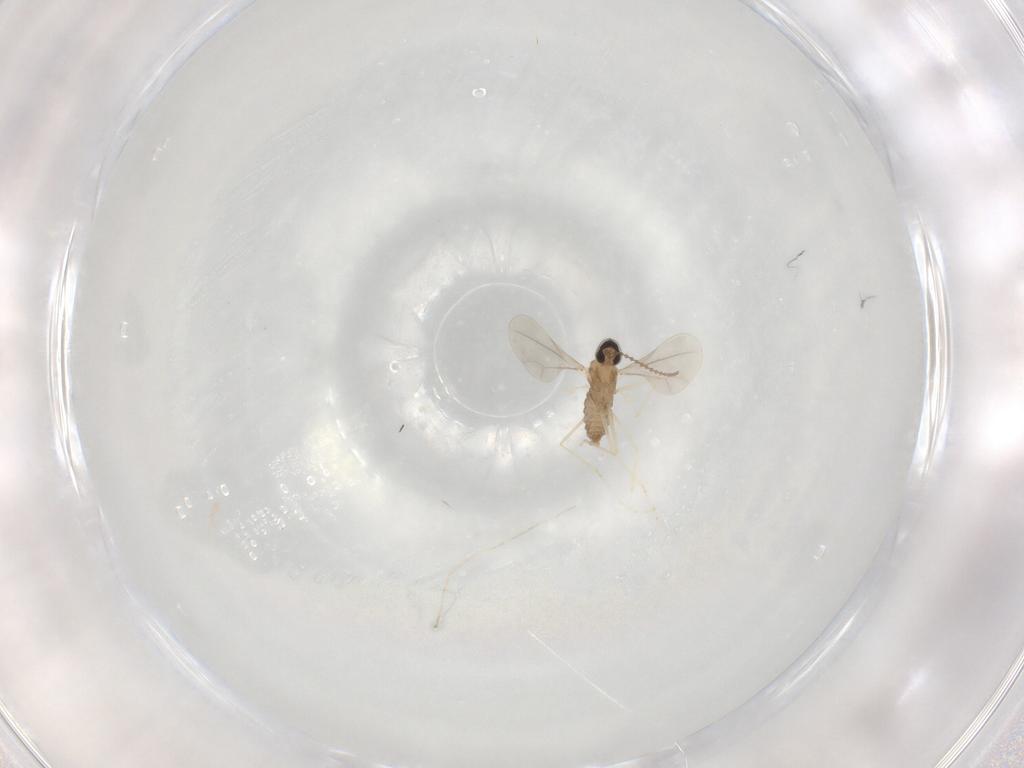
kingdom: Animalia
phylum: Arthropoda
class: Insecta
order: Diptera
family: Cecidomyiidae
